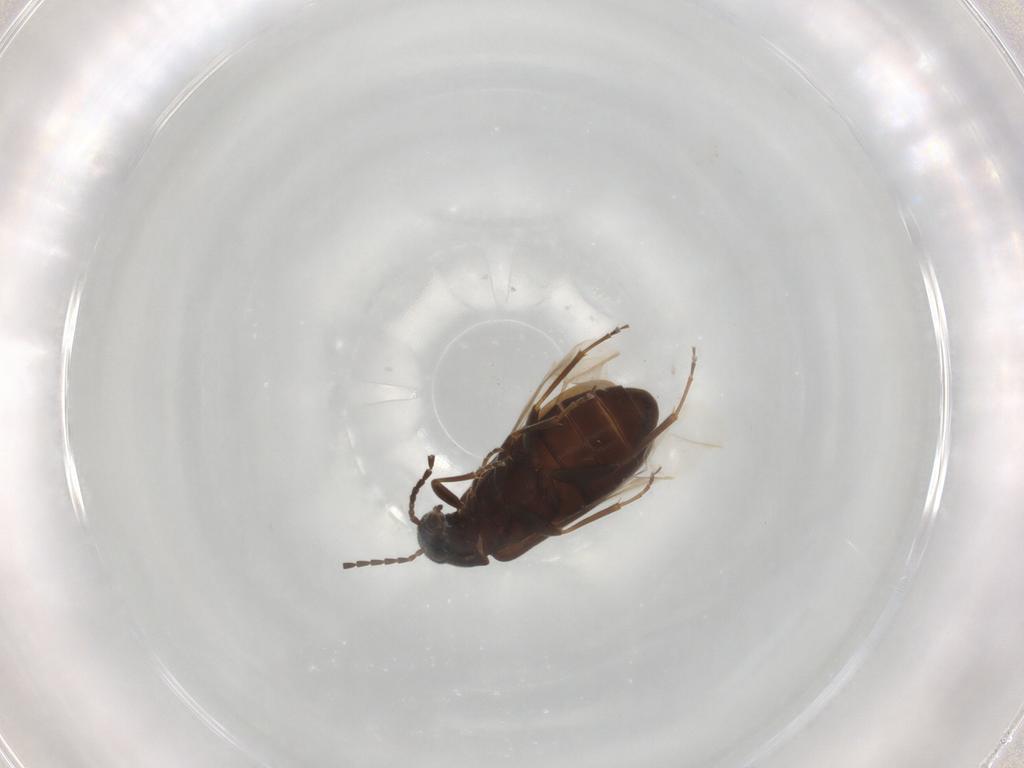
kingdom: Animalia
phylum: Arthropoda
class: Insecta
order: Coleoptera
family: Scraptiidae
